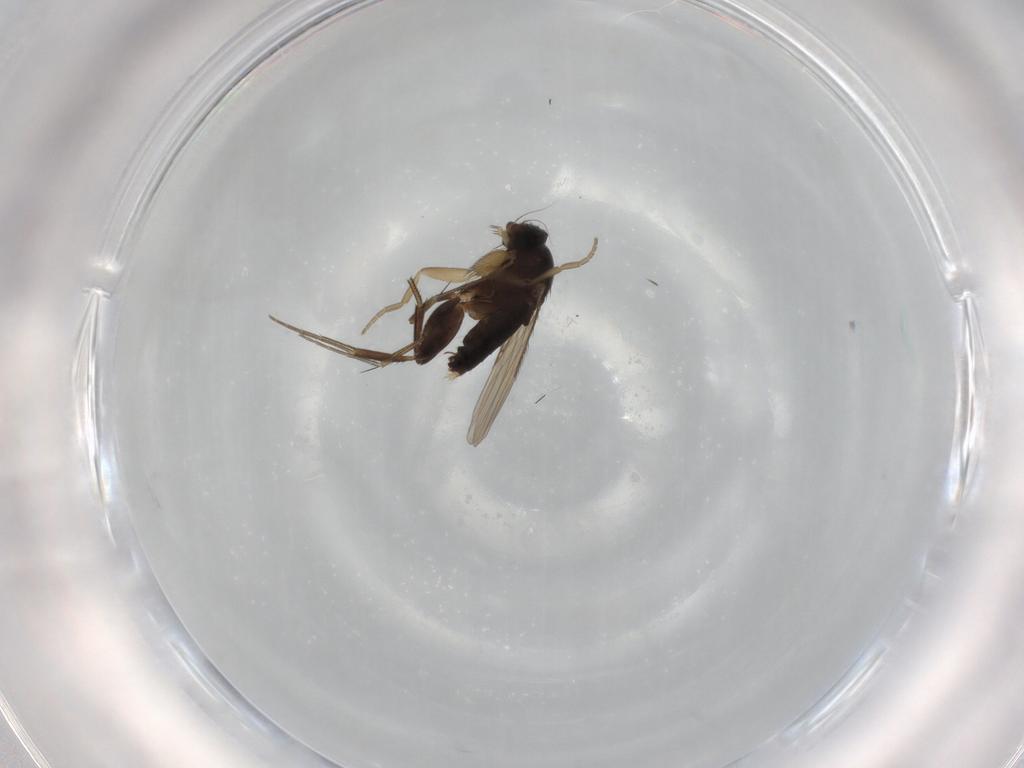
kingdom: Animalia
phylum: Arthropoda
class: Insecta
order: Diptera
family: Phoridae
